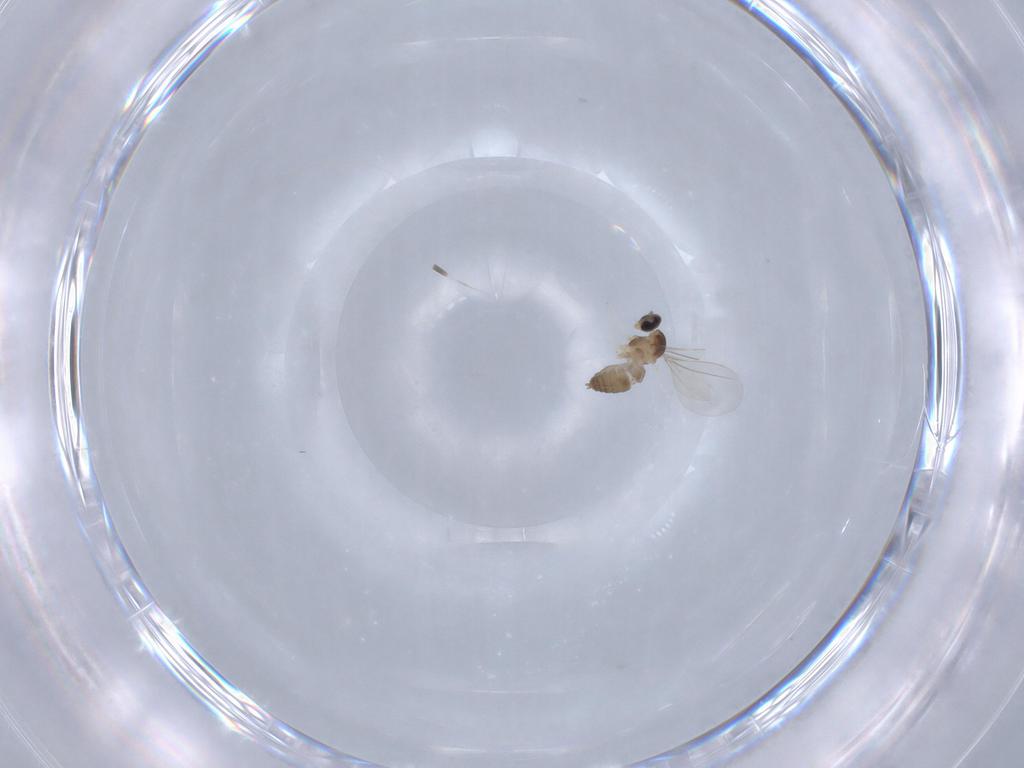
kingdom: Animalia
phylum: Arthropoda
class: Insecta
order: Diptera
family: Cecidomyiidae
